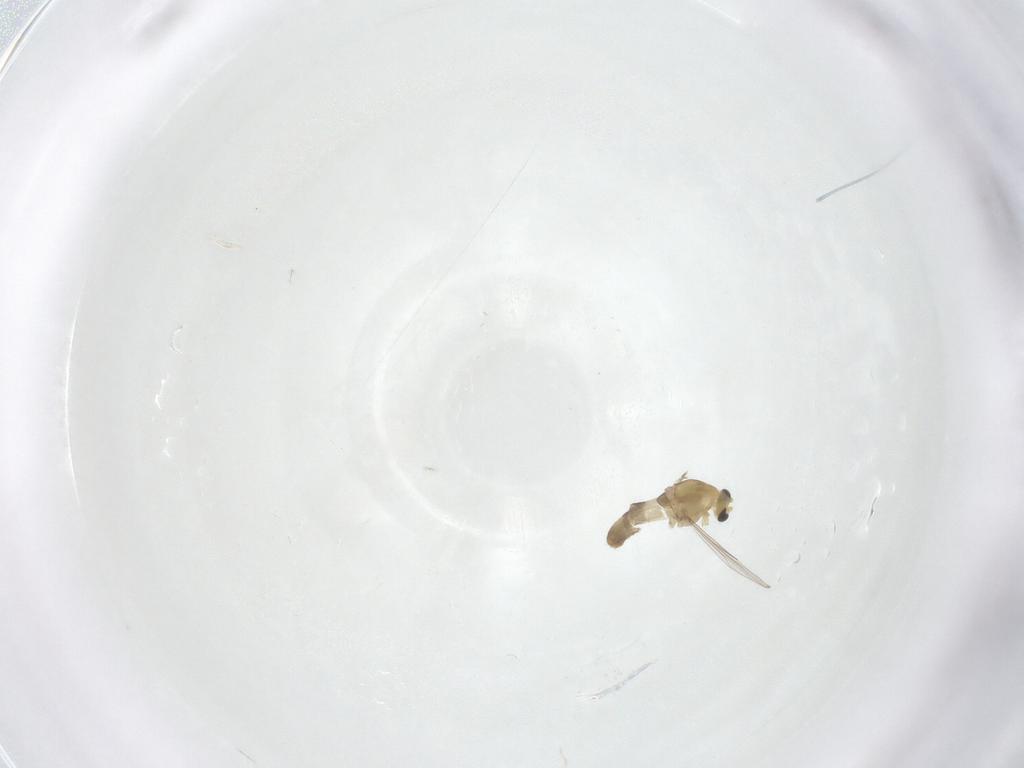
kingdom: Animalia
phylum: Arthropoda
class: Insecta
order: Diptera
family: Chironomidae
